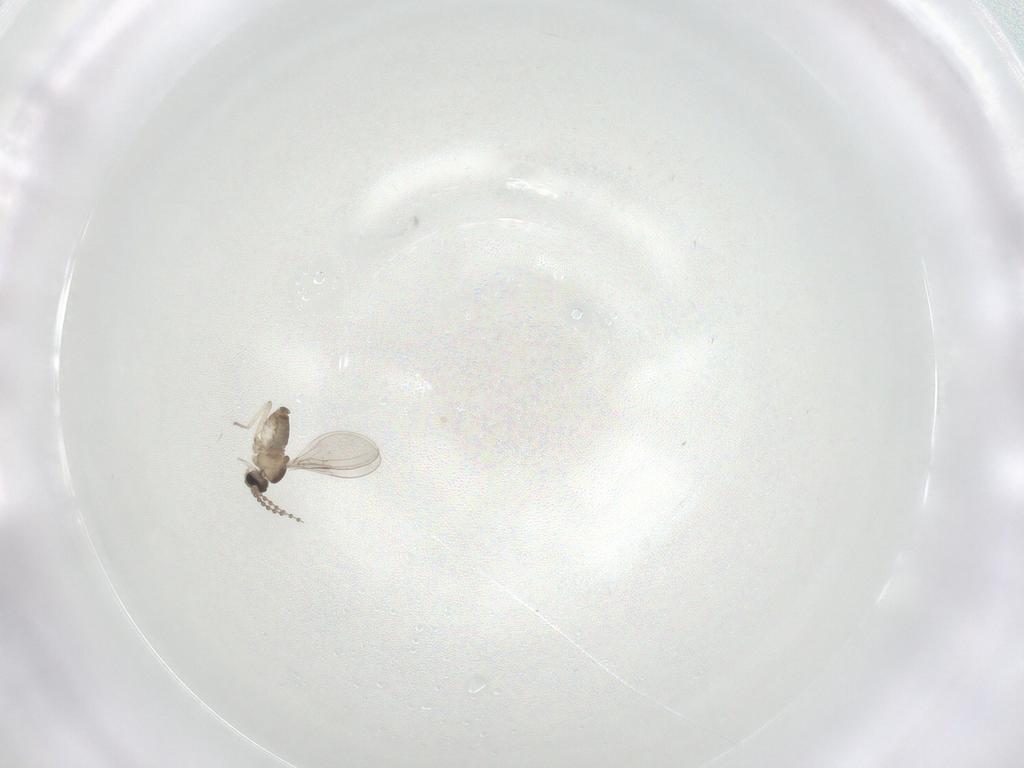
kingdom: Animalia
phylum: Arthropoda
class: Insecta
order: Diptera
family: Cecidomyiidae
